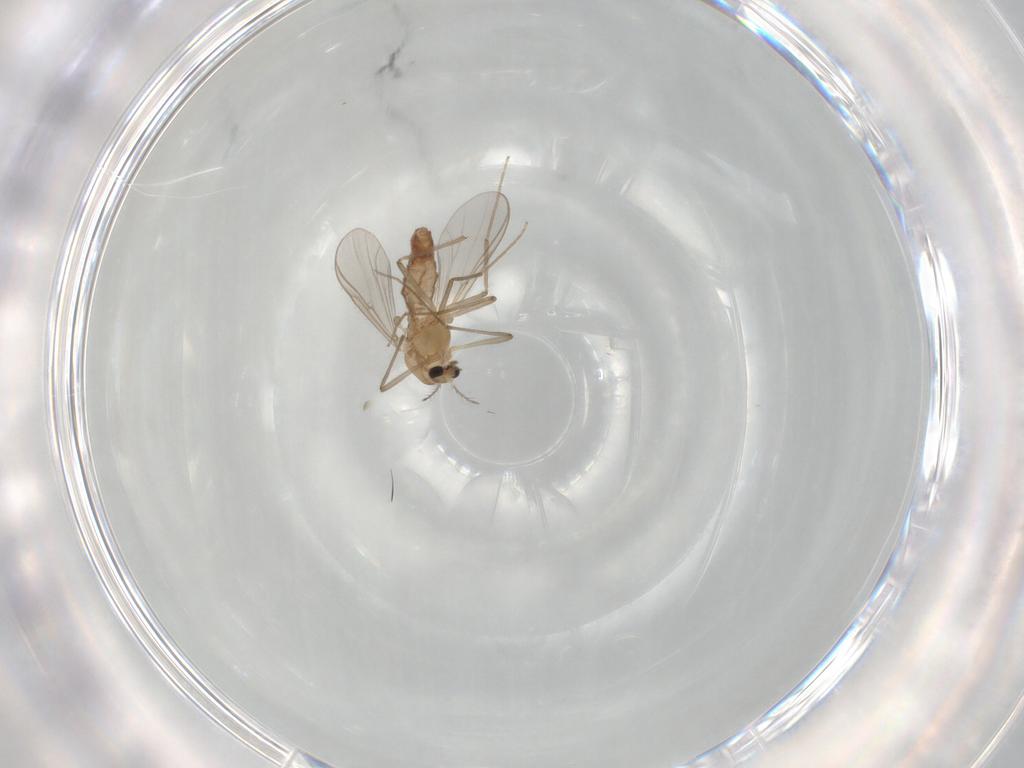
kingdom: Animalia
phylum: Arthropoda
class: Insecta
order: Diptera
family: Chironomidae
